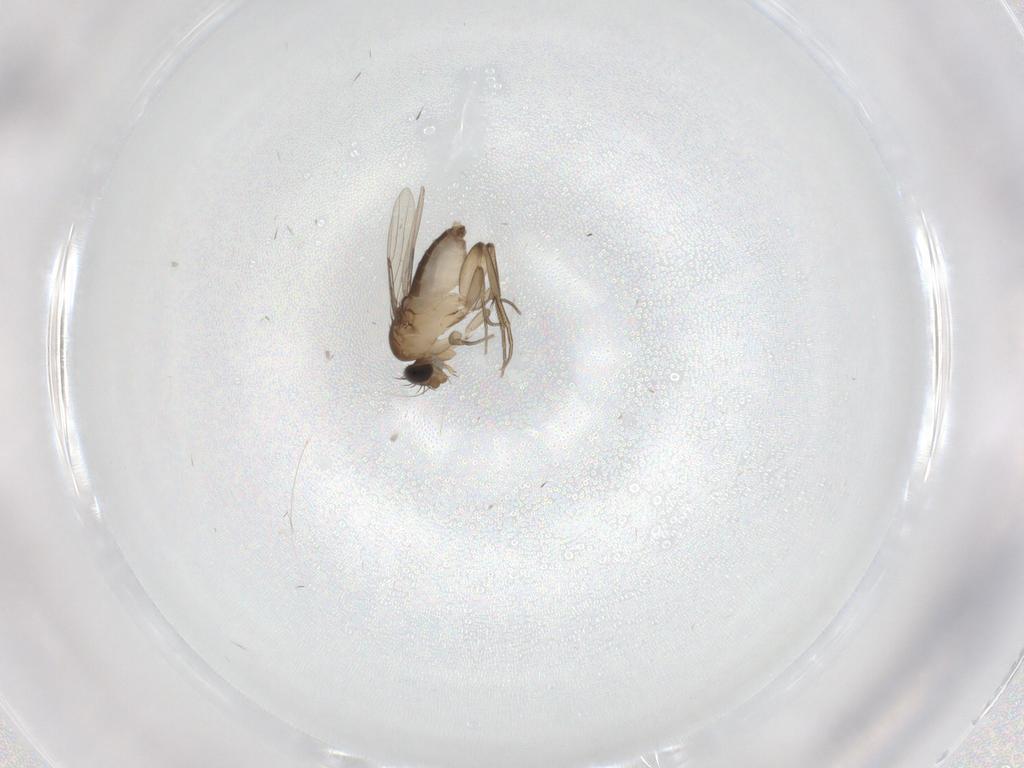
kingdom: Animalia
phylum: Arthropoda
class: Insecta
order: Diptera
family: Phoridae
